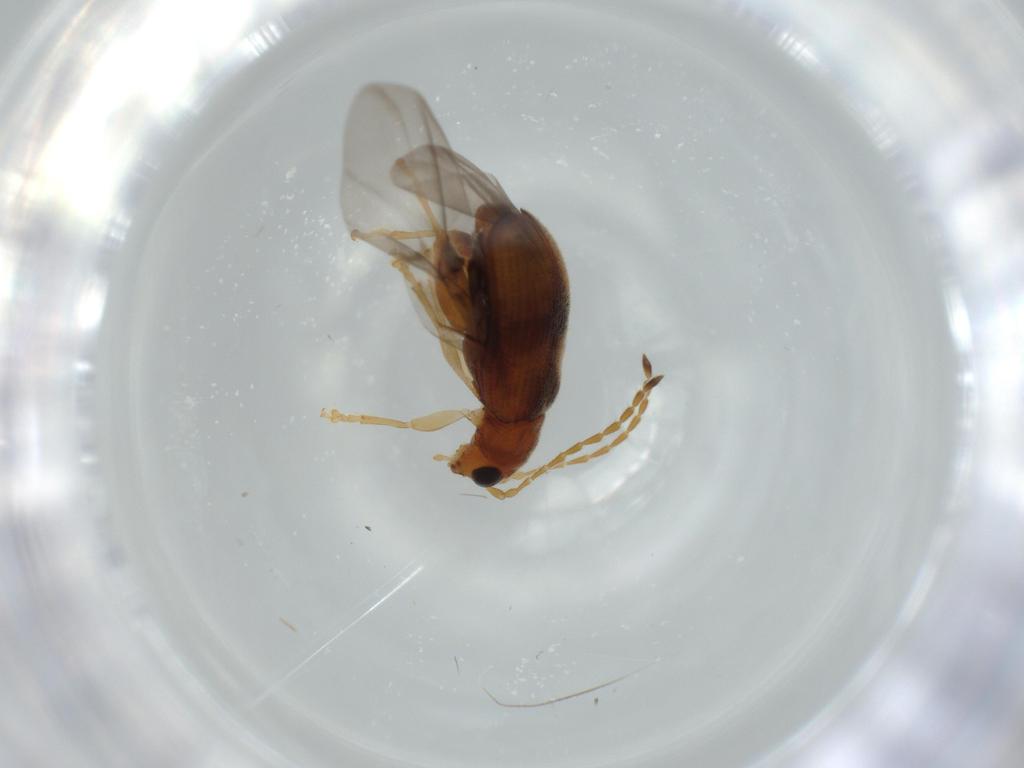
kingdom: Animalia
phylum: Arthropoda
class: Insecta
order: Coleoptera
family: Chrysomelidae
